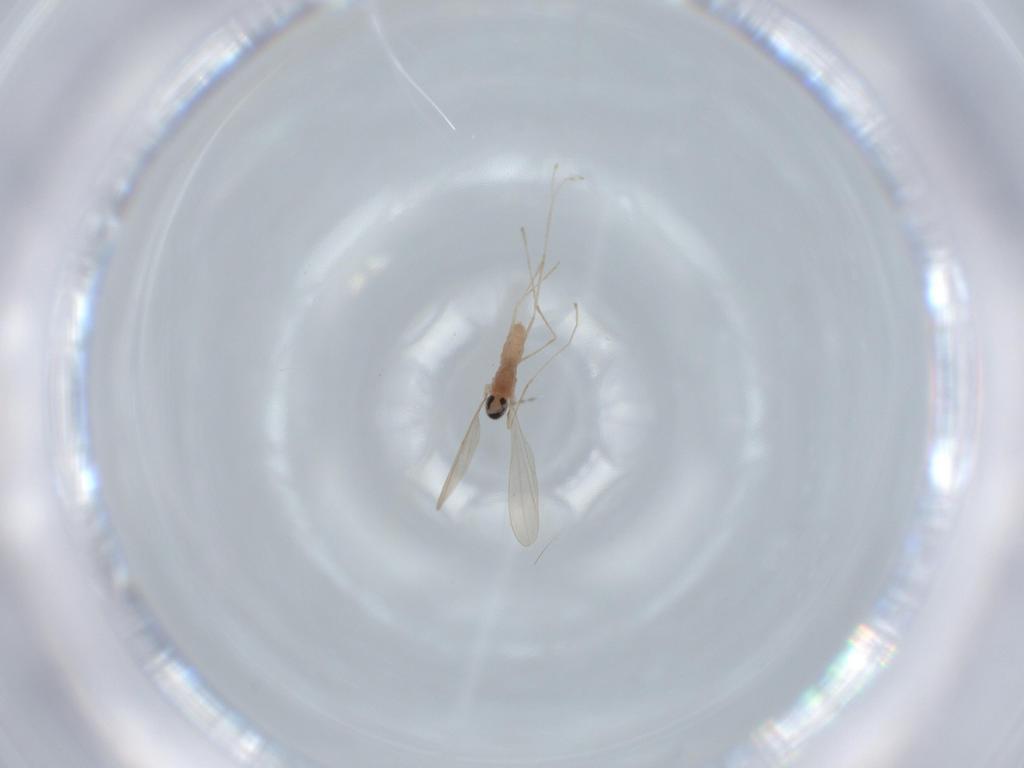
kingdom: Animalia
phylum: Arthropoda
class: Insecta
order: Diptera
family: Cecidomyiidae
